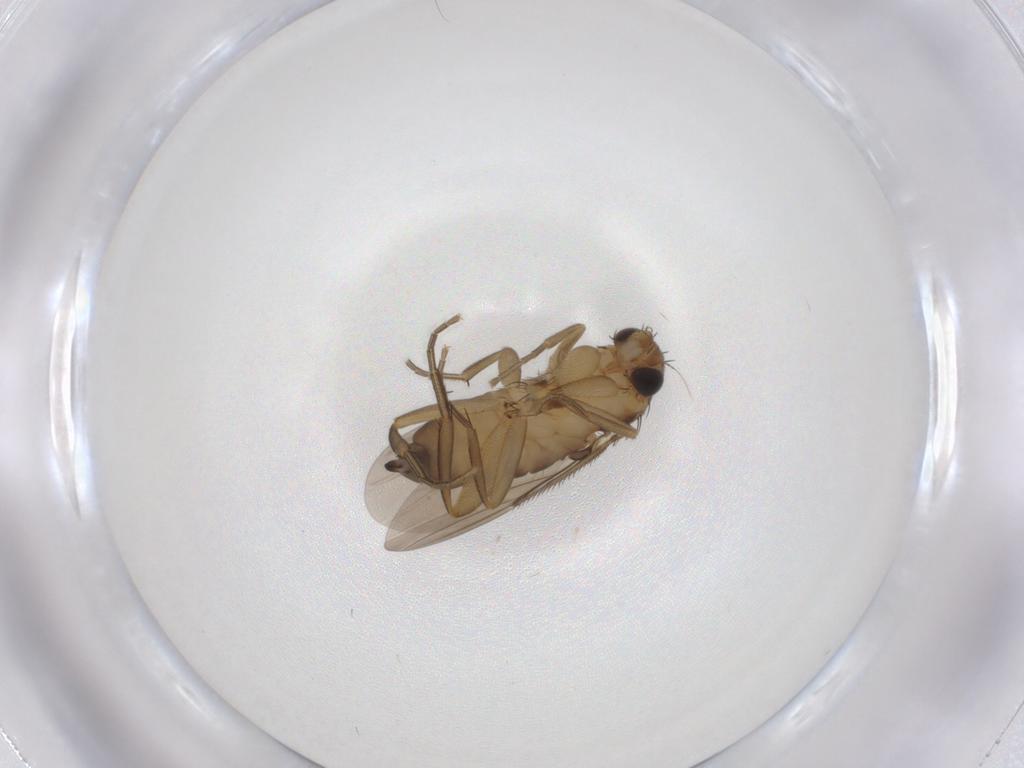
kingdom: Animalia
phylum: Arthropoda
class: Insecta
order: Diptera
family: Phoridae
